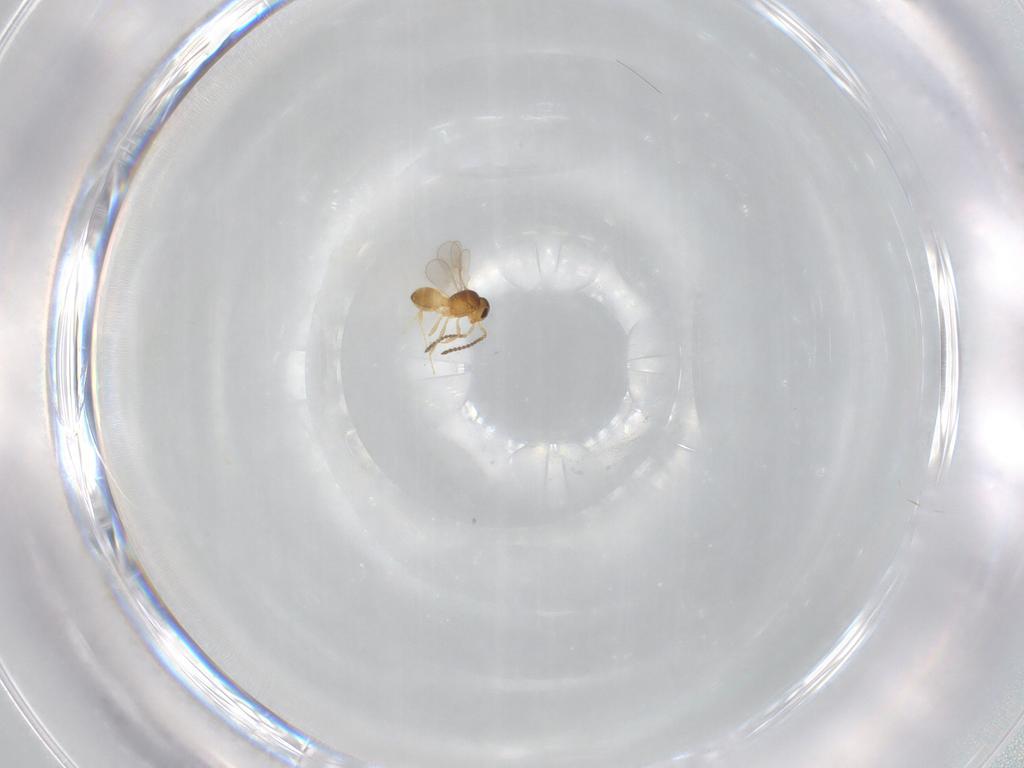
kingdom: Animalia
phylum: Arthropoda
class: Insecta
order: Hymenoptera
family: Scelionidae
